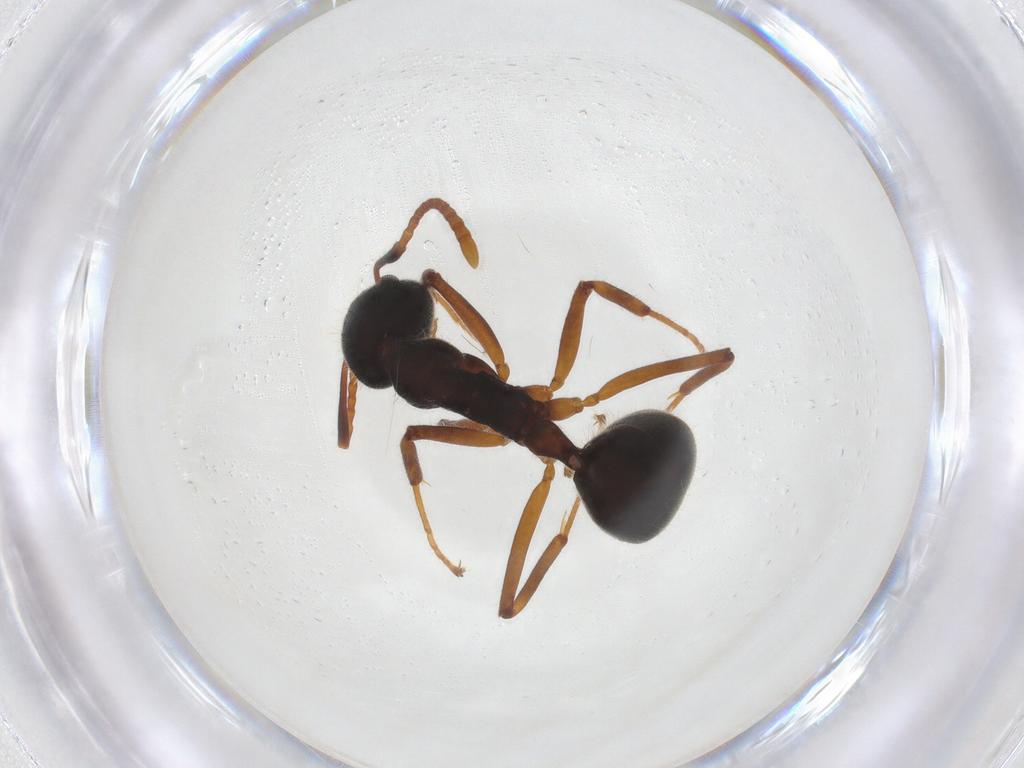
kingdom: Animalia
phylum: Arthropoda
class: Insecta
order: Hymenoptera
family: Formicidae
